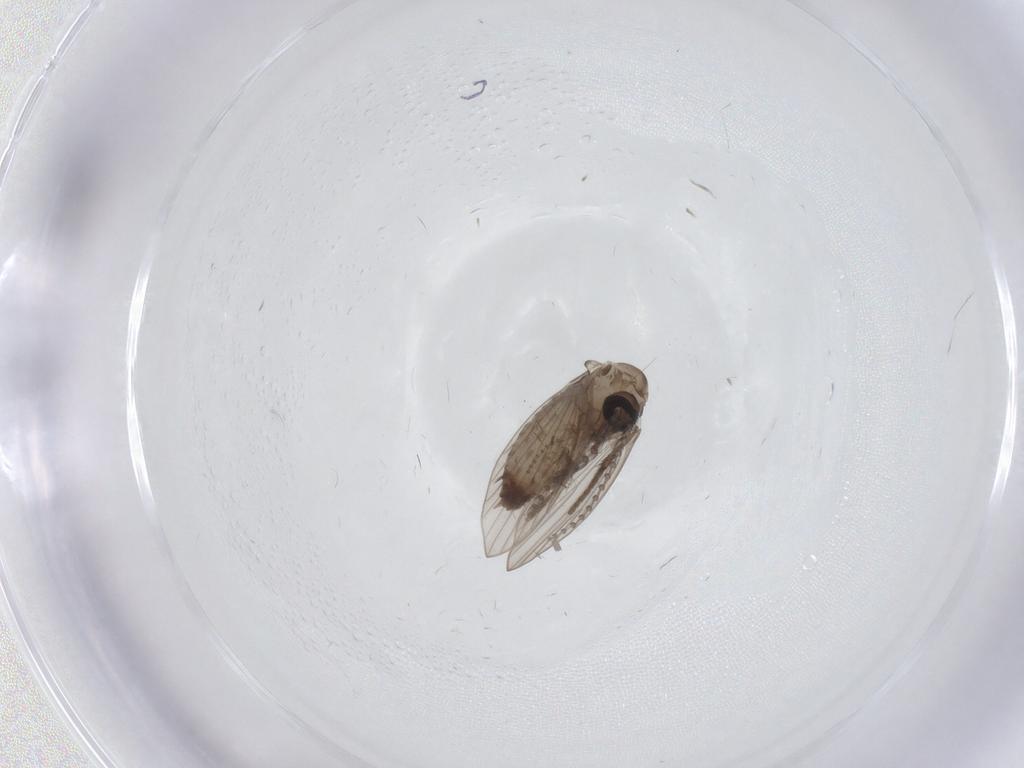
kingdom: Animalia
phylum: Arthropoda
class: Insecta
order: Diptera
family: Psychodidae
